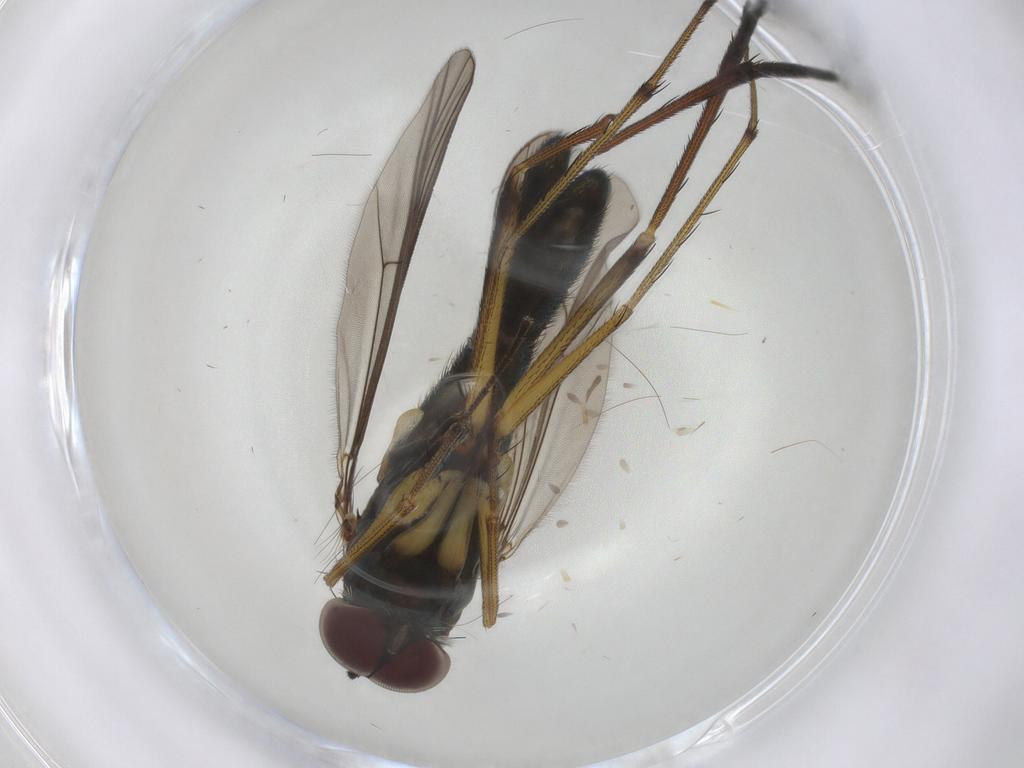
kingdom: Animalia
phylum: Arthropoda
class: Insecta
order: Diptera
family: Dolichopodidae
